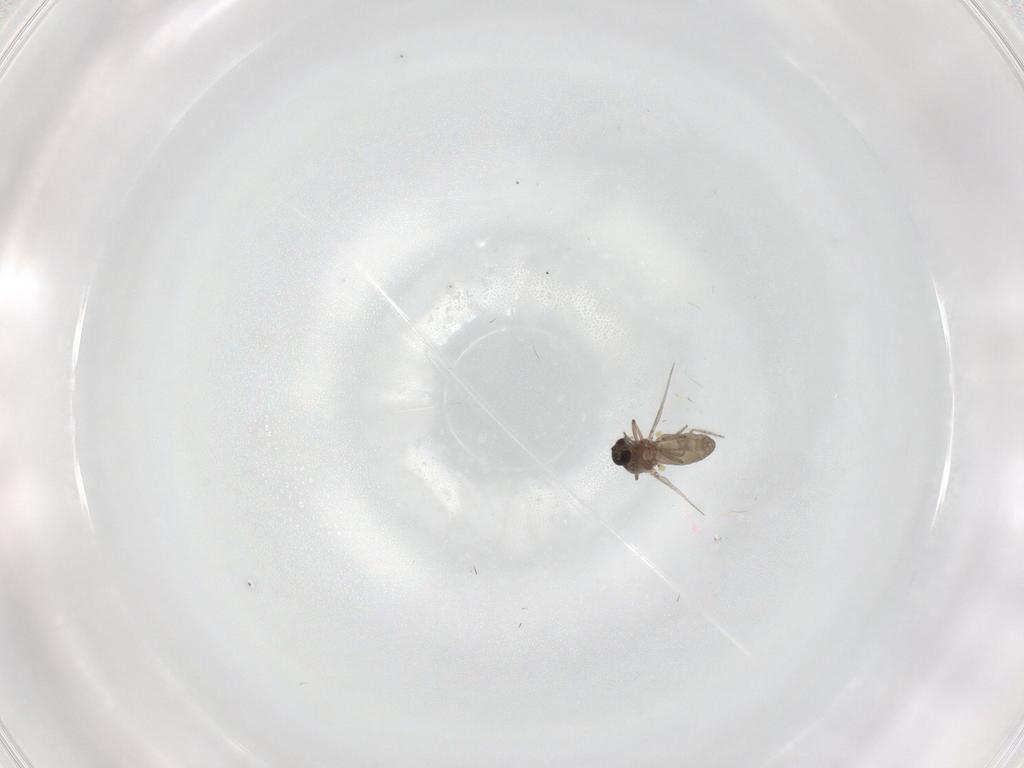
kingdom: Animalia
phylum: Arthropoda
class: Insecta
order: Diptera
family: Ceratopogonidae
